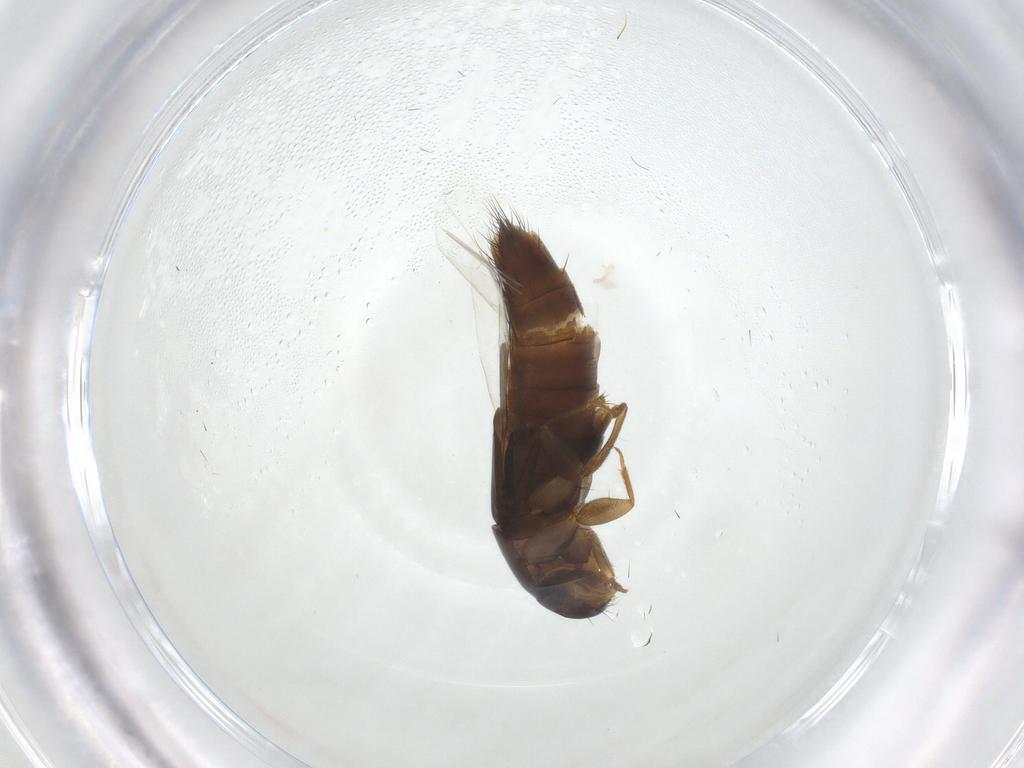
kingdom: Animalia
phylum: Arthropoda
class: Insecta
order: Coleoptera
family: Staphylinidae
